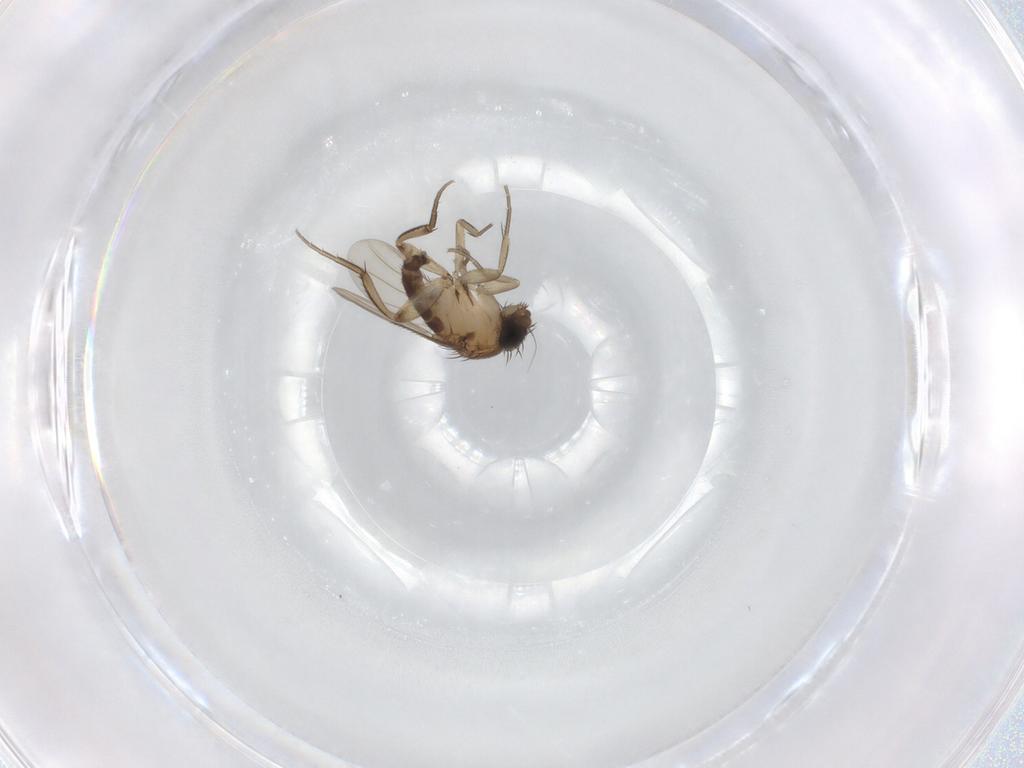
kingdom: Animalia
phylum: Arthropoda
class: Insecta
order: Diptera
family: Phoridae
